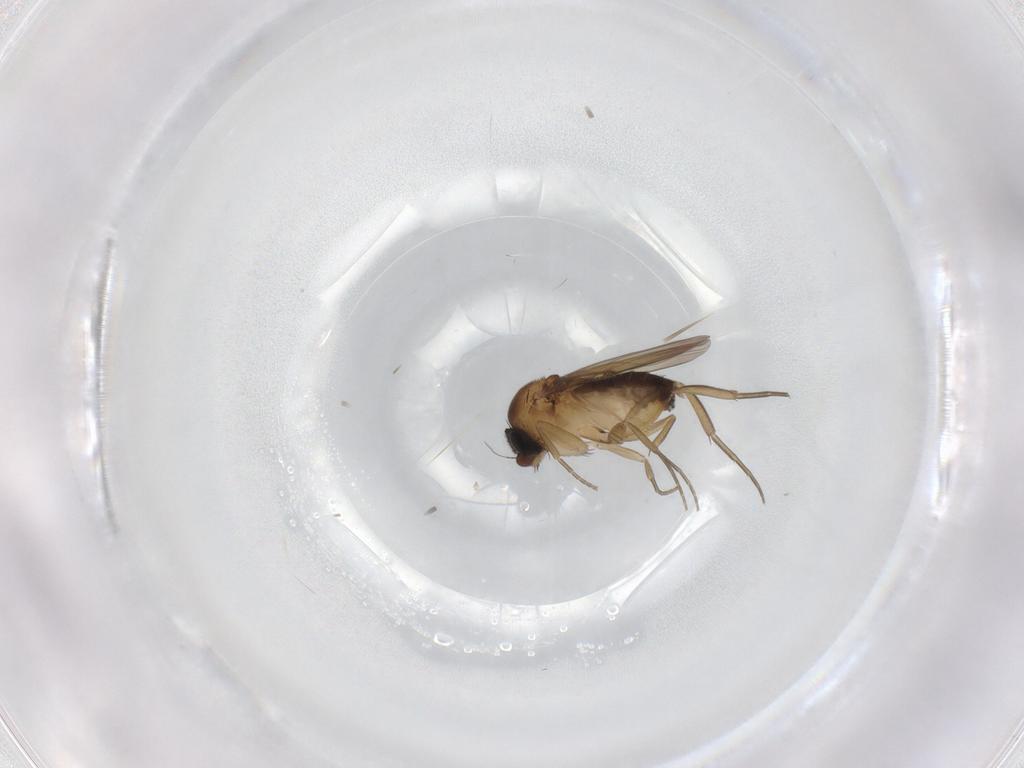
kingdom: Animalia
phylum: Arthropoda
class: Insecta
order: Diptera
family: Phoridae
